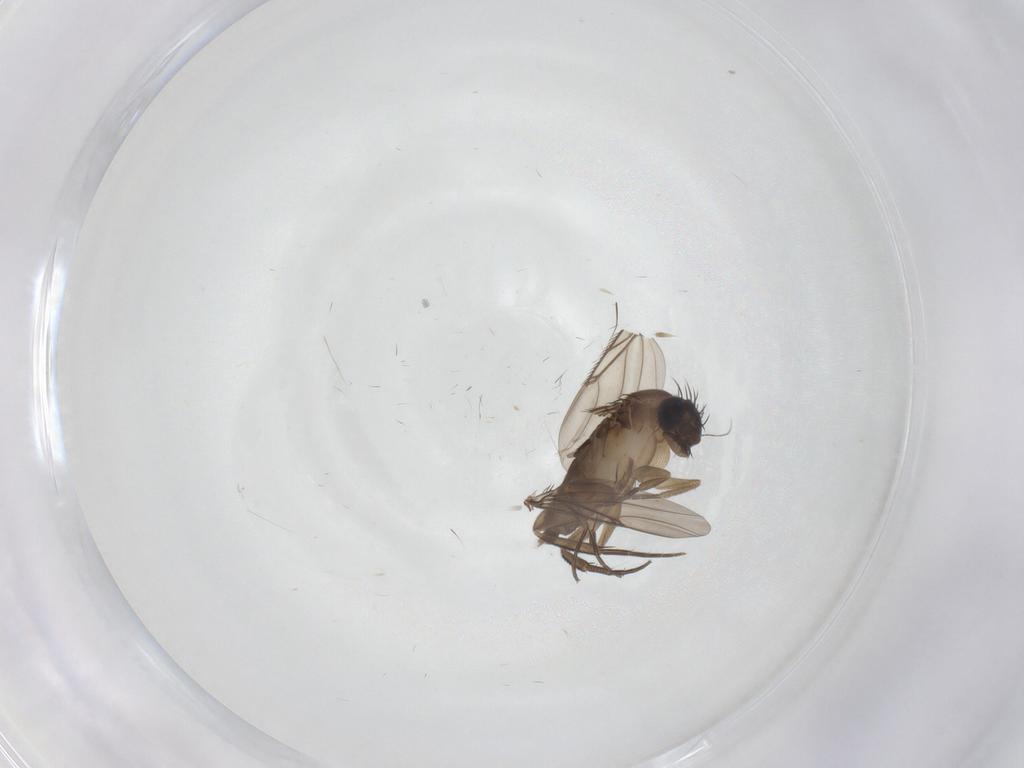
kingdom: Animalia
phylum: Arthropoda
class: Insecta
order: Diptera
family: Phoridae
